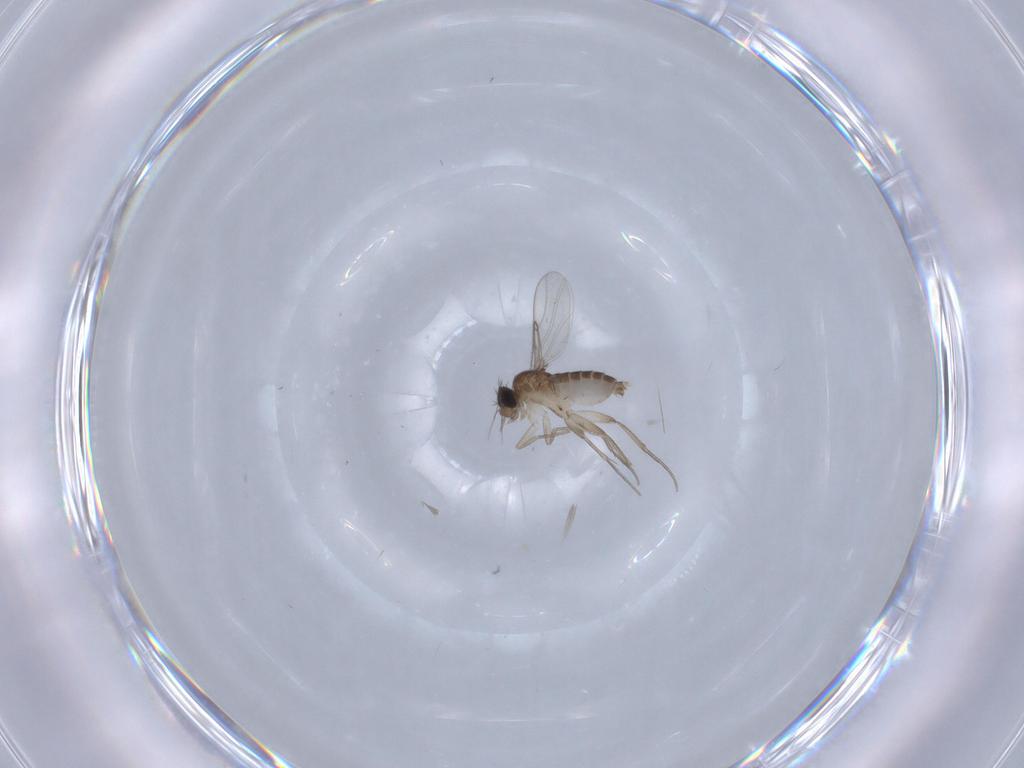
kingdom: Animalia
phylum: Arthropoda
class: Insecta
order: Diptera
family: Phoridae
